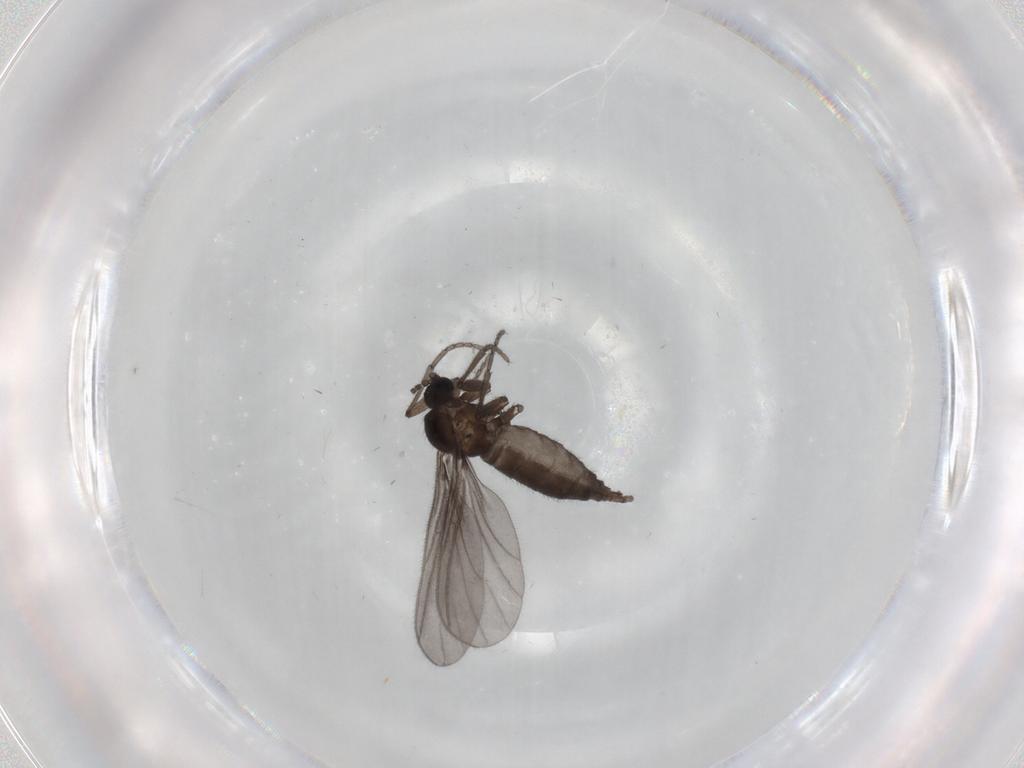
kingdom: Animalia
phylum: Arthropoda
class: Insecta
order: Diptera
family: Sciaridae
